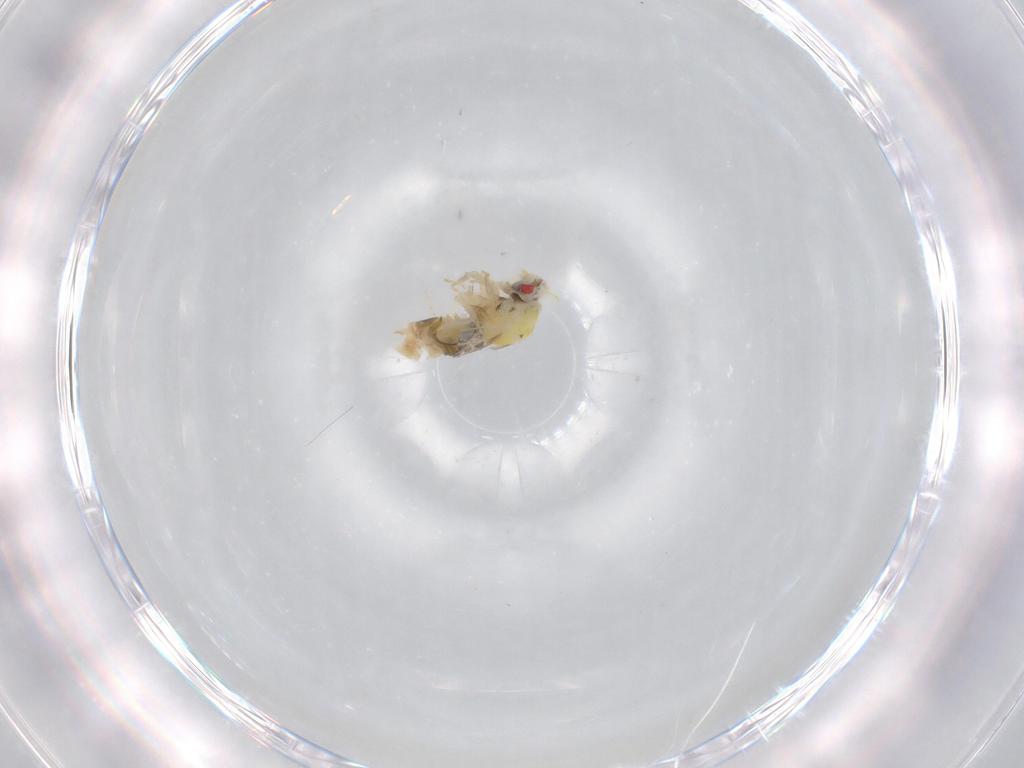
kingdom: Animalia
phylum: Arthropoda
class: Insecta
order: Hemiptera
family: Aleyrodidae
